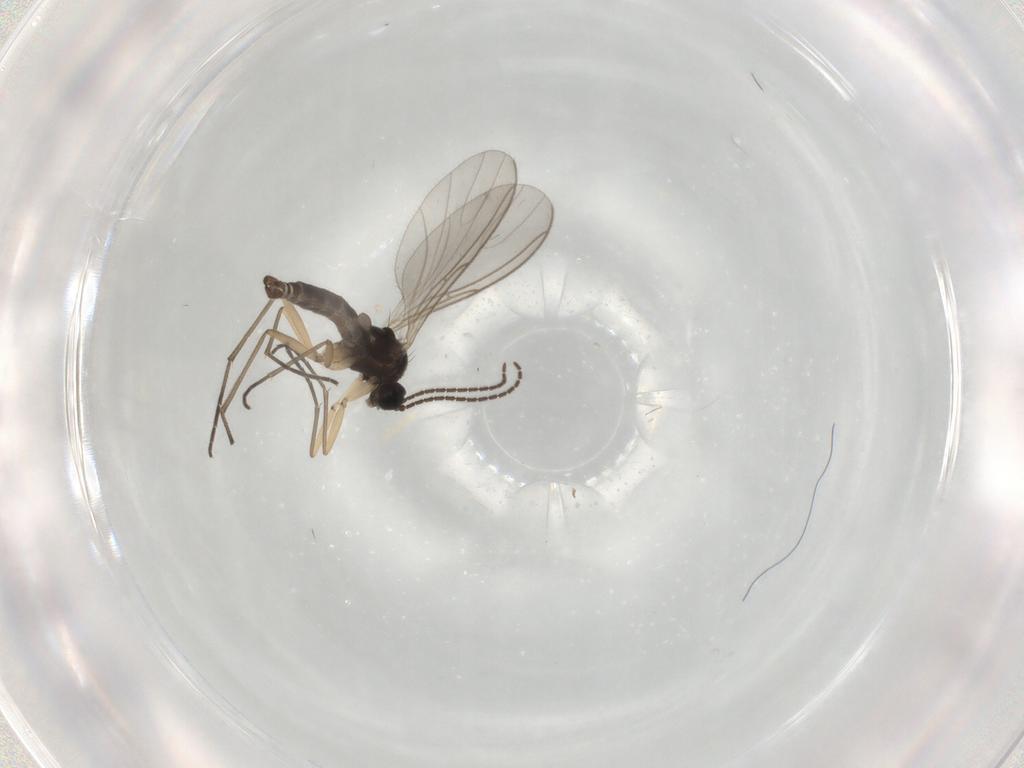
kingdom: Animalia
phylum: Arthropoda
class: Insecta
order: Diptera
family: Sciaridae
